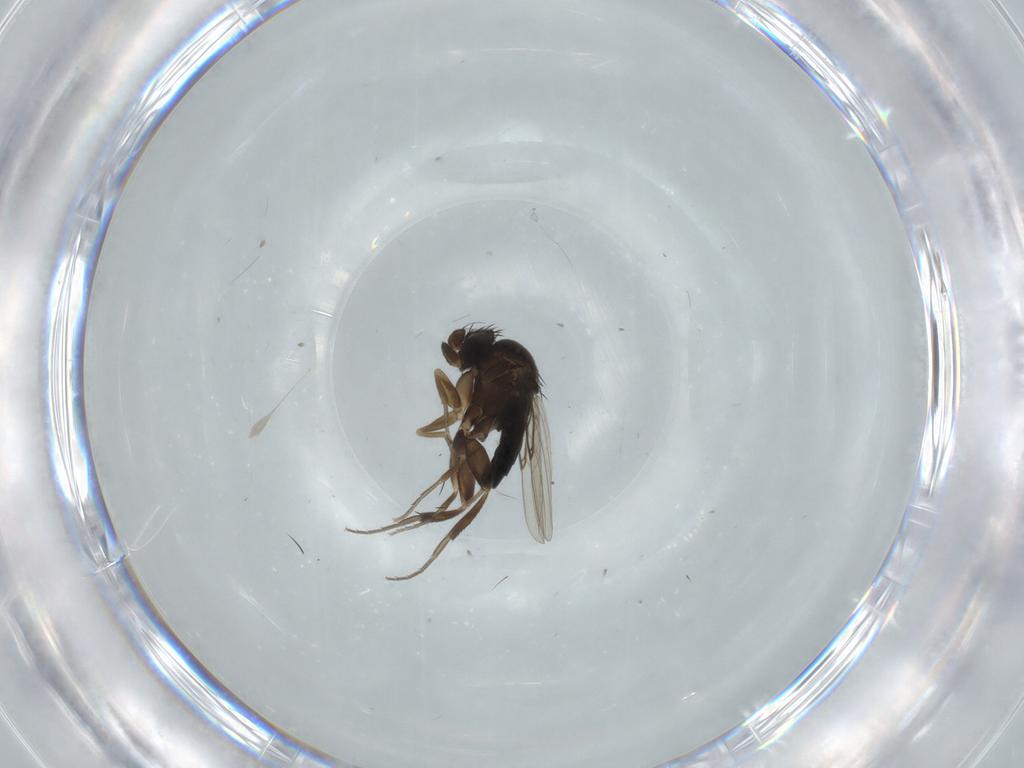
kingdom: Animalia
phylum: Arthropoda
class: Insecta
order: Diptera
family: Phoridae
